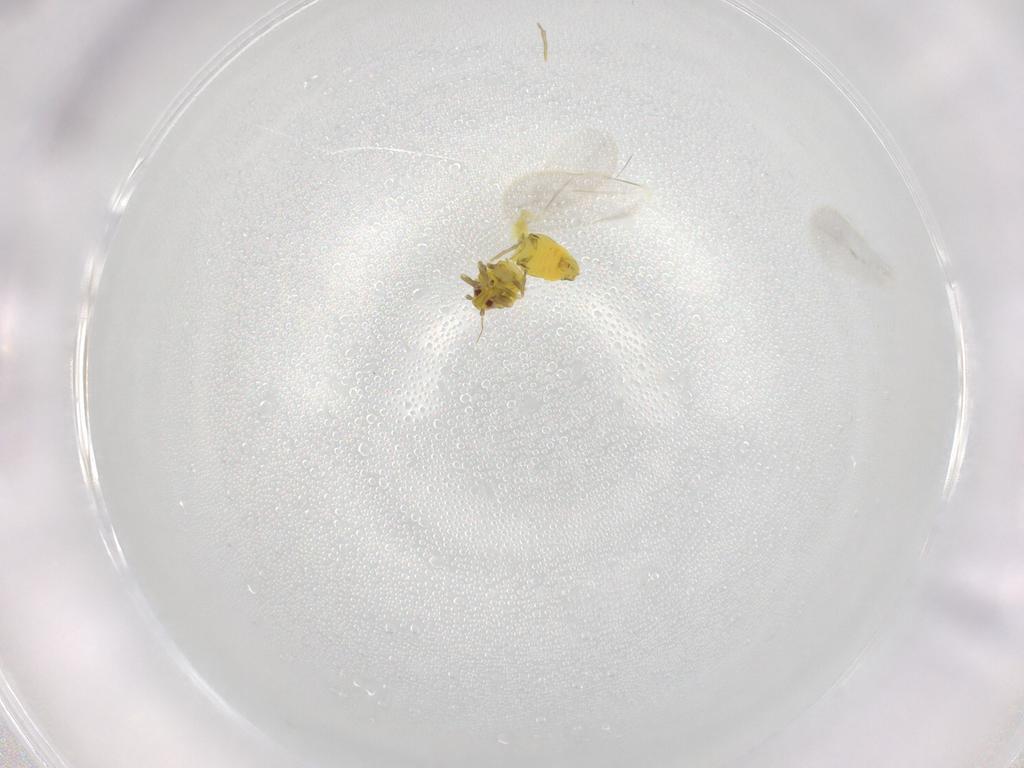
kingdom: Animalia
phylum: Arthropoda
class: Insecta
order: Hemiptera
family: Aleyrodidae
